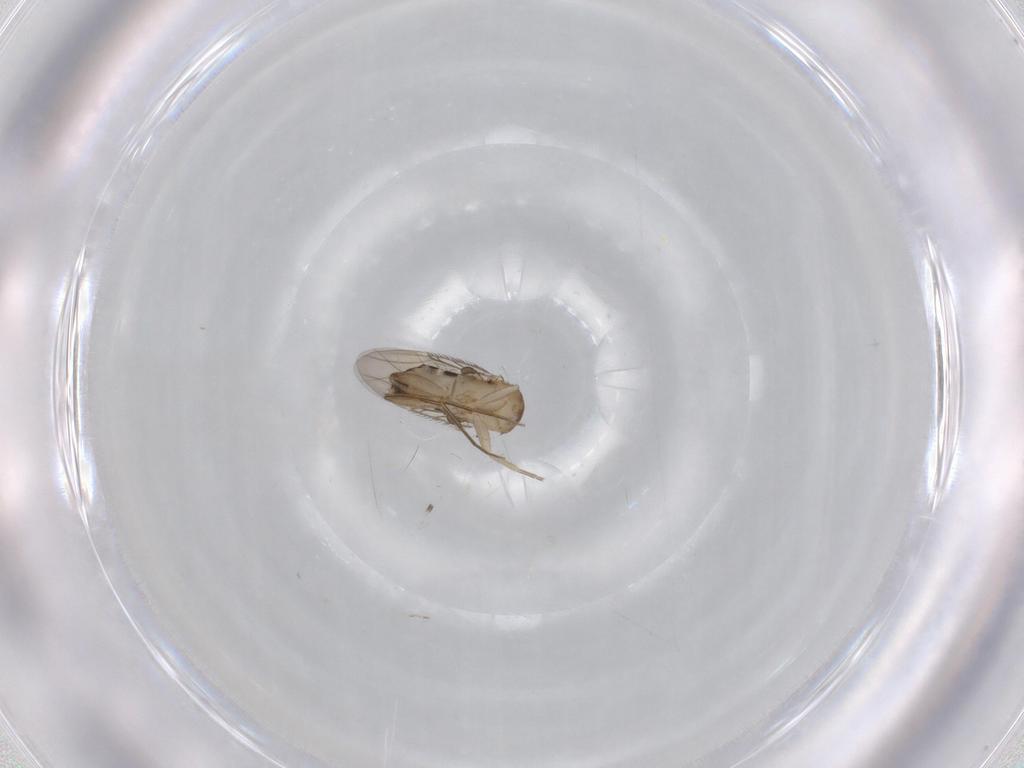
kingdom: Animalia
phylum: Arthropoda
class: Insecta
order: Diptera
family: Phoridae
